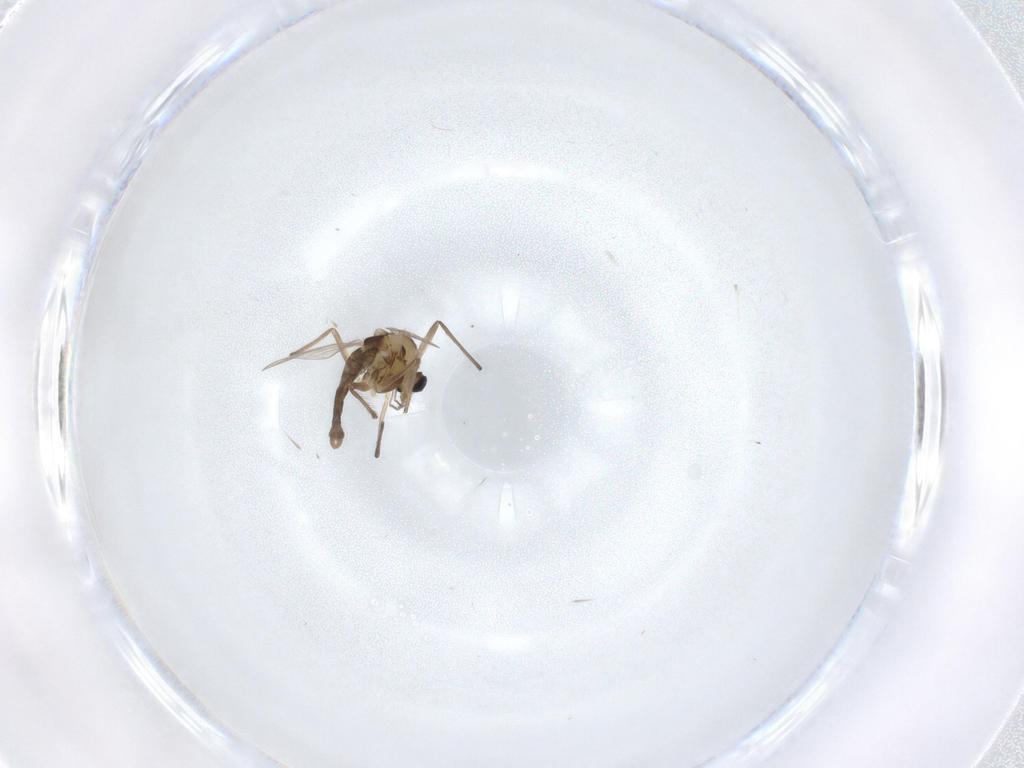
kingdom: Animalia
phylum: Arthropoda
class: Insecta
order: Diptera
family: Chironomidae
